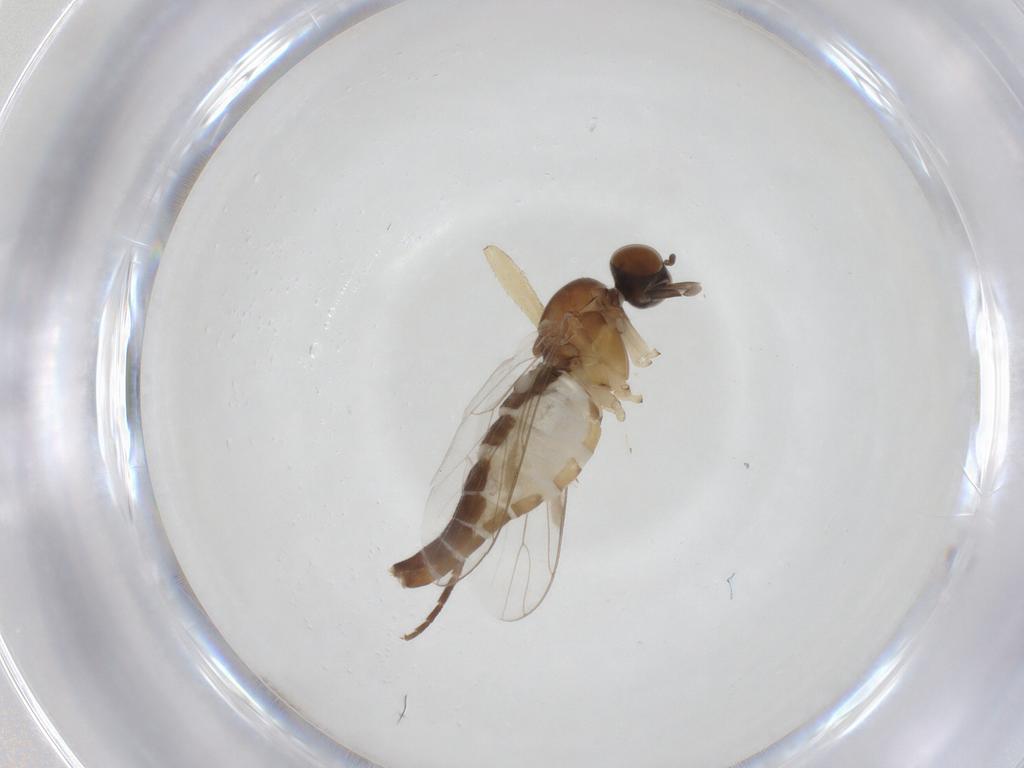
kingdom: Animalia
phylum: Arthropoda
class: Insecta
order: Diptera
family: Scenopinidae
